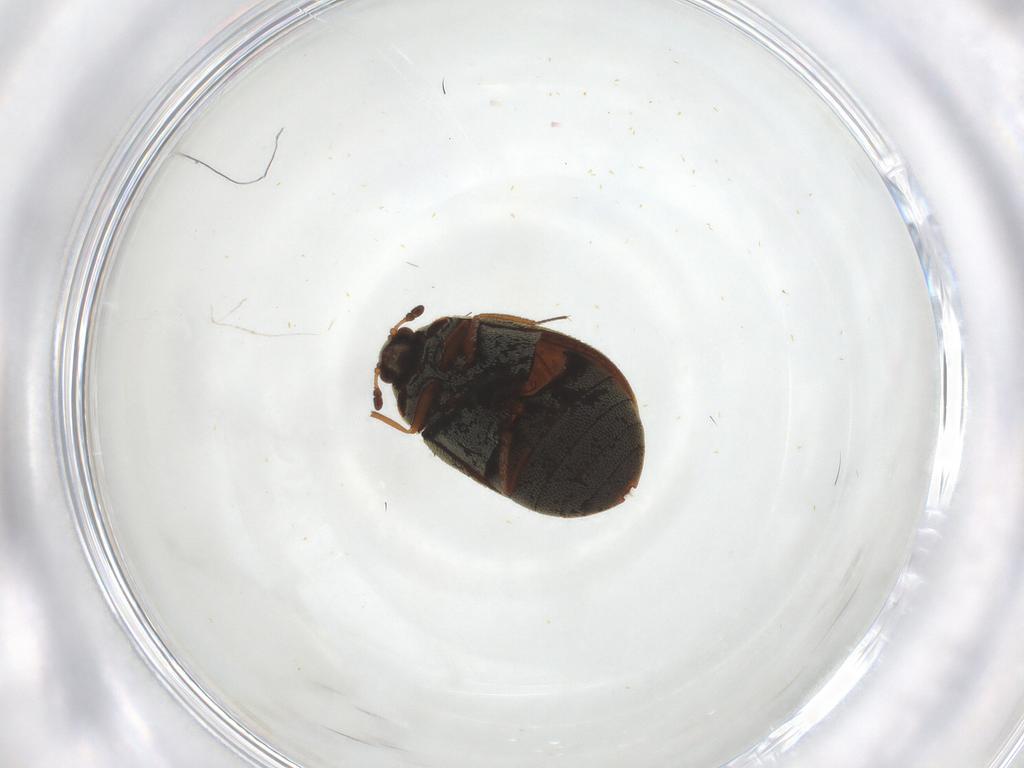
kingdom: Animalia
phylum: Arthropoda
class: Insecta
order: Coleoptera
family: Dermestidae
